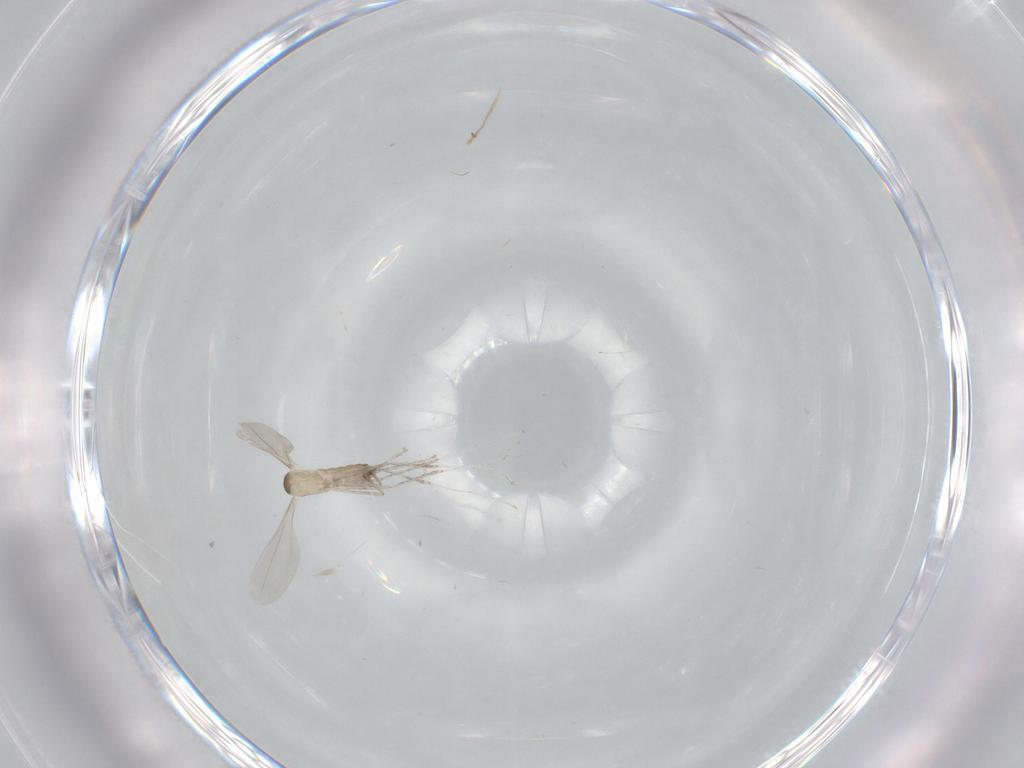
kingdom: Animalia
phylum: Arthropoda
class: Insecta
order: Diptera
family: Cecidomyiidae
